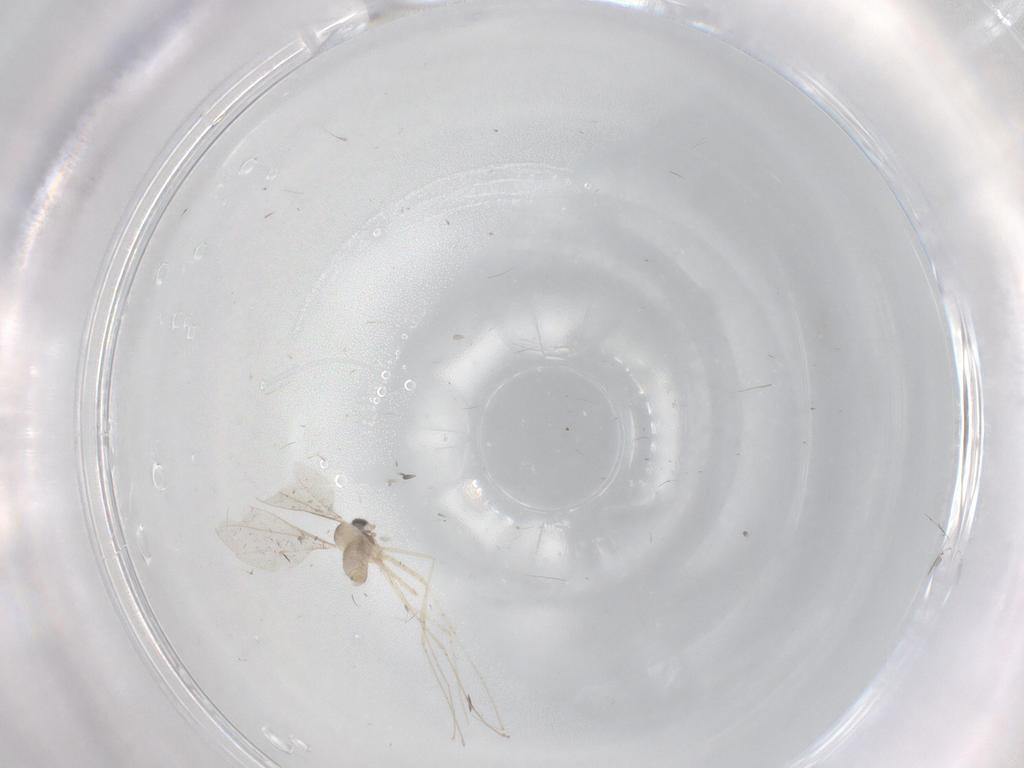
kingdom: Animalia
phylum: Arthropoda
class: Insecta
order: Diptera
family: Cecidomyiidae
